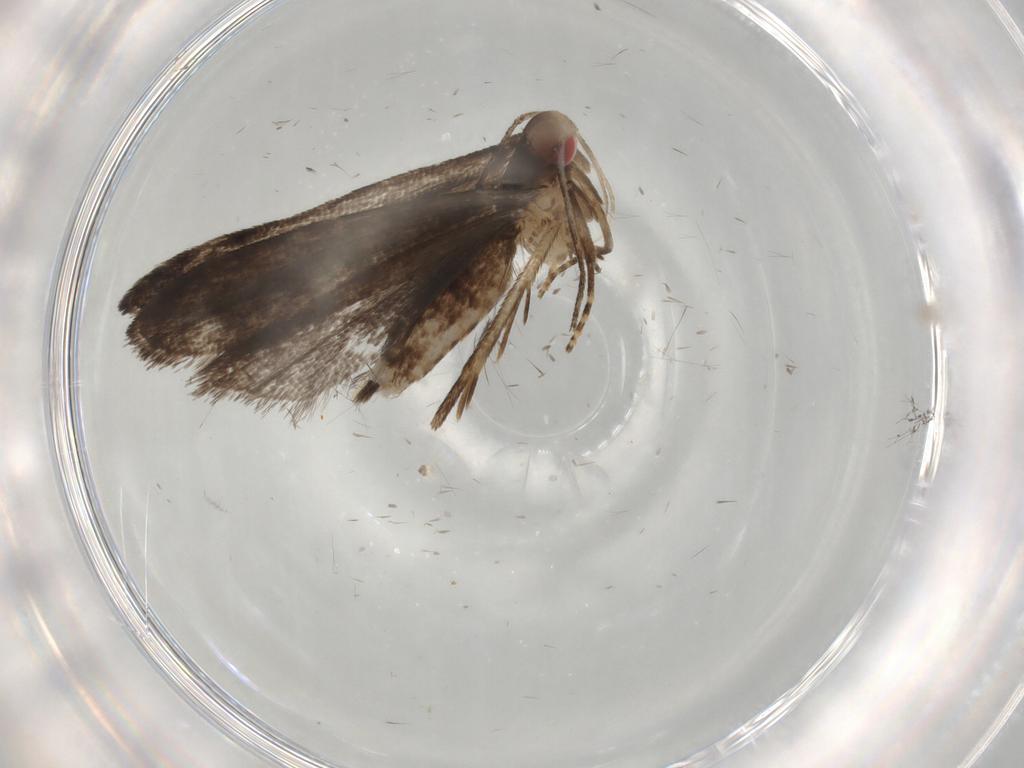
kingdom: Animalia
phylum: Arthropoda
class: Insecta
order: Lepidoptera
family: Gelechiidae
